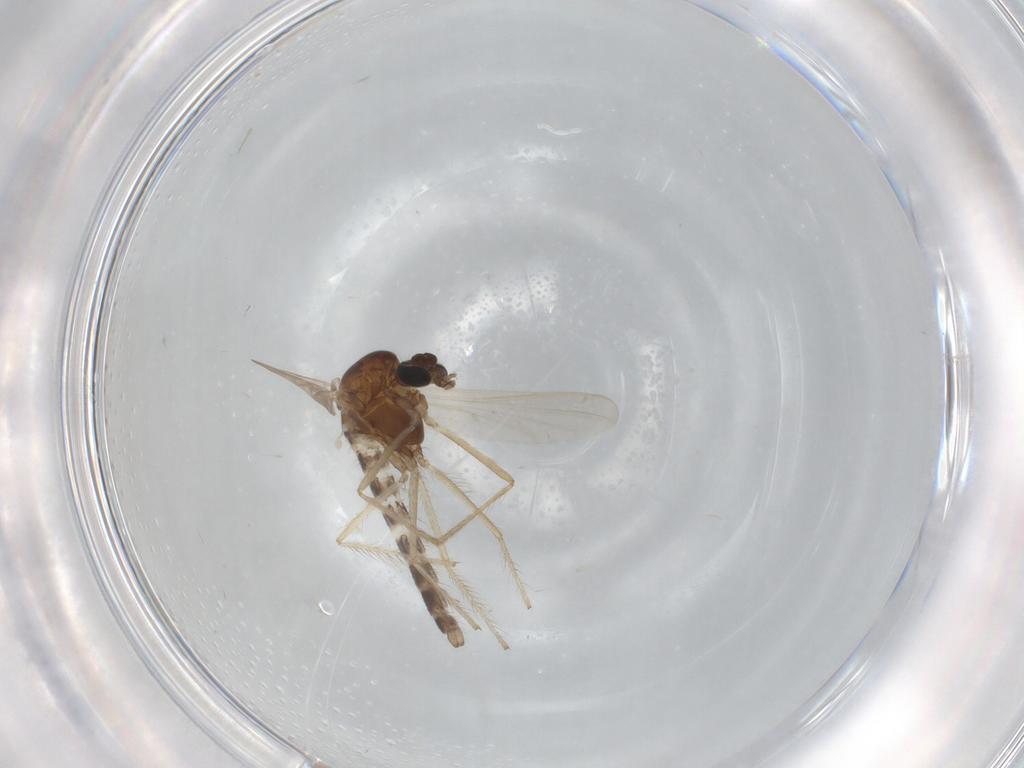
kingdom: Animalia
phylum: Arthropoda
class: Insecta
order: Diptera
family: Chironomidae
